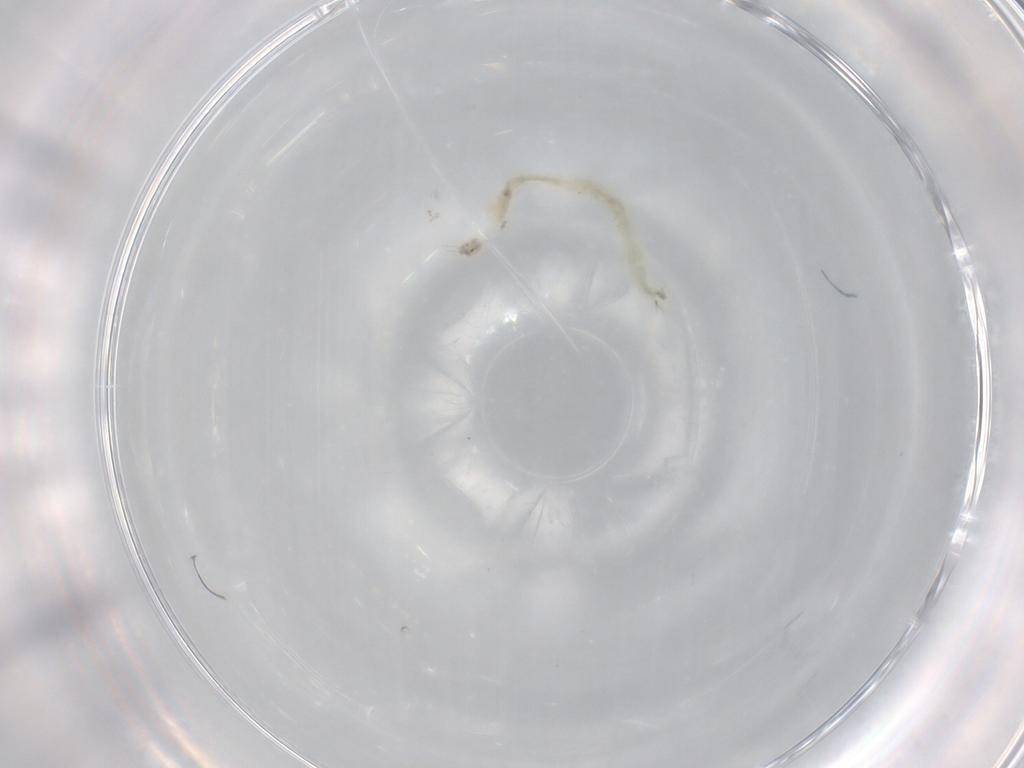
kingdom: Animalia
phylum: Arthropoda
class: Insecta
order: Diptera
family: Chironomidae
